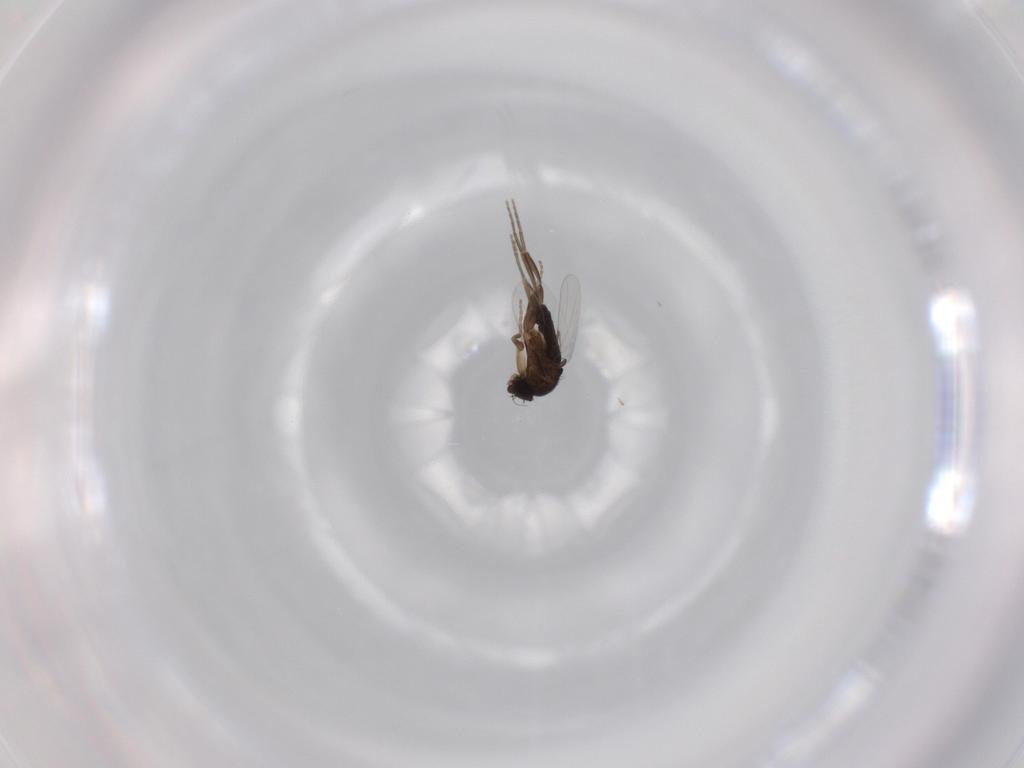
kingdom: Animalia
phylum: Arthropoda
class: Insecta
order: Diptera
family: Phoridae
